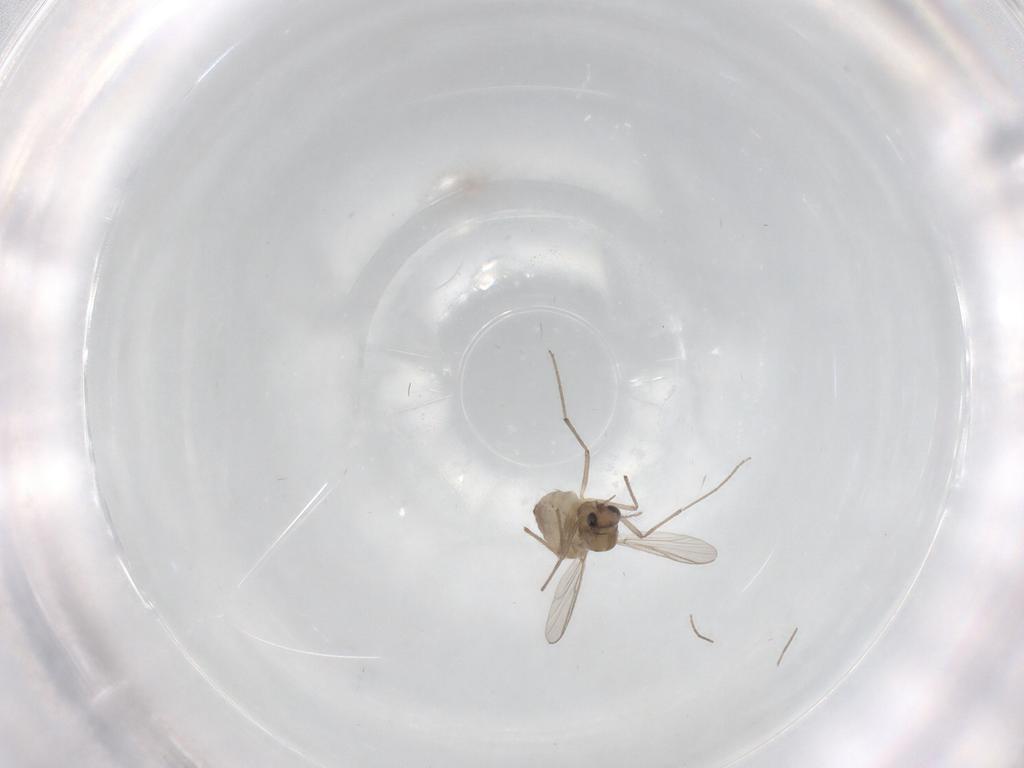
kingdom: Animalia
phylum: Arthropoda
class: Insecta
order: Diptera
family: Chironomidae
